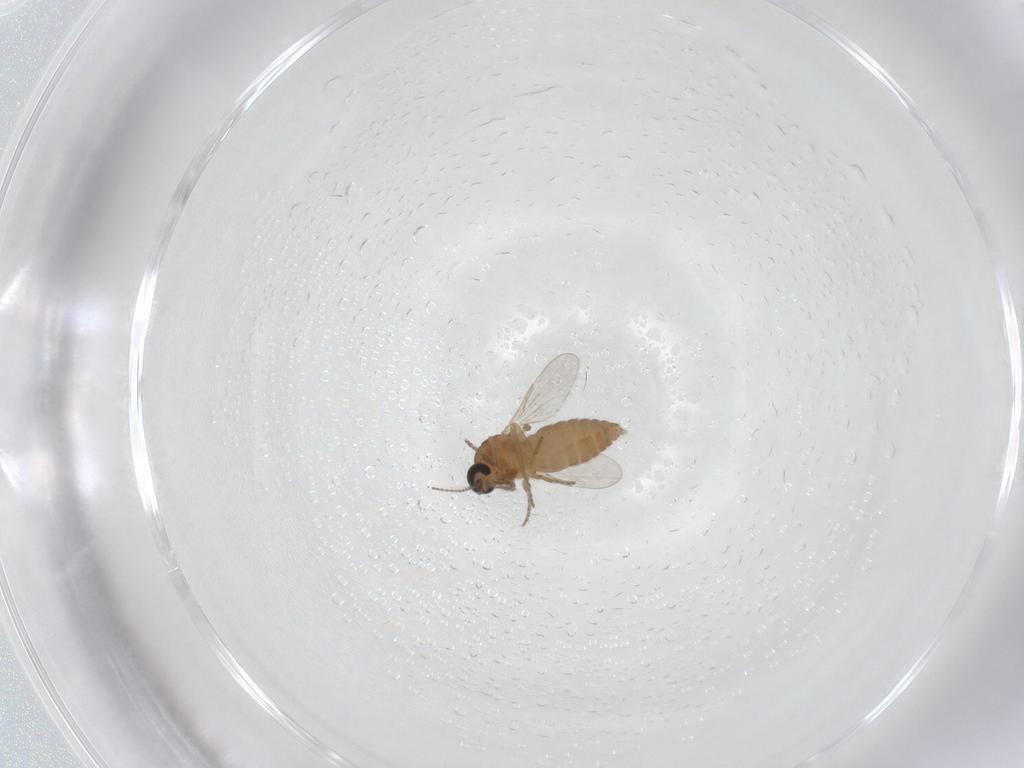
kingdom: Animalia
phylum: Arthropoda
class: Insecta
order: Diptera
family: Ceratopogonidae
